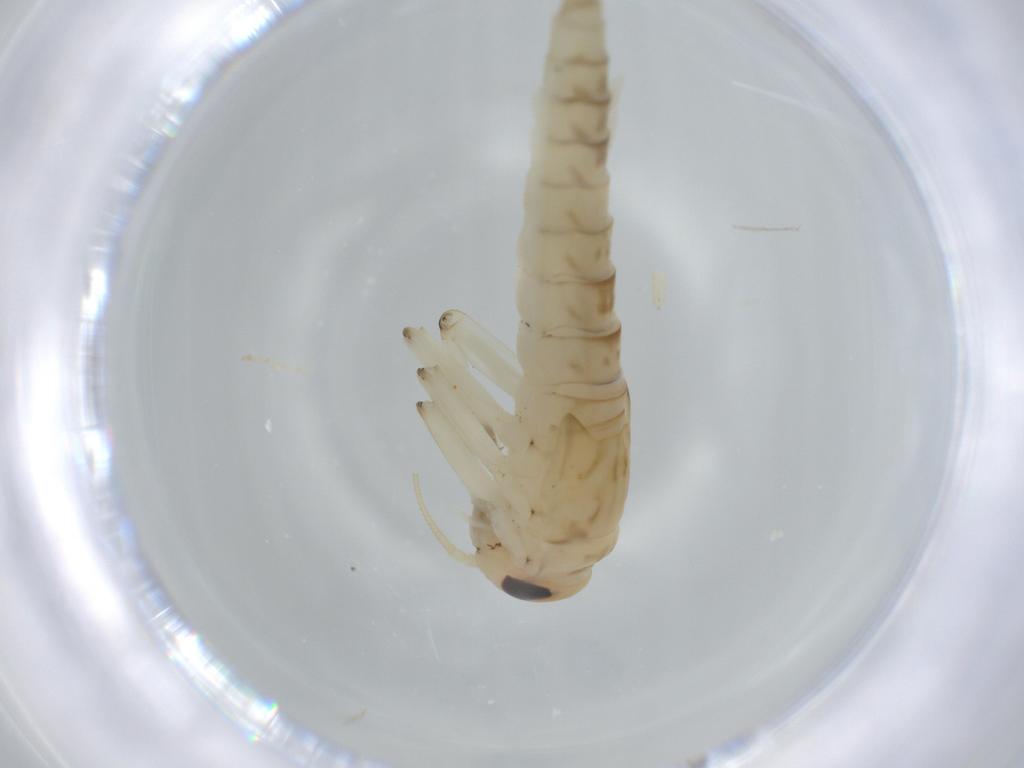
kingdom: Animalia
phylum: Arthropoda
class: Insecta
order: Ephemeroptera
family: Baetidae
